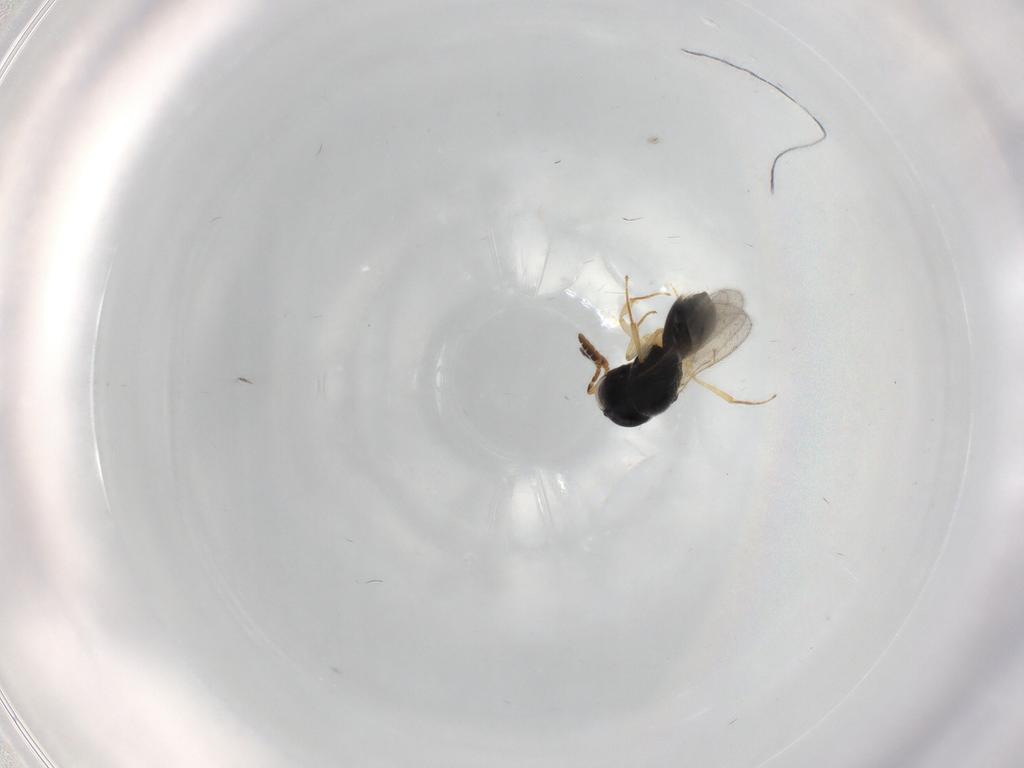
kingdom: Animalia
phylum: Arthropoda
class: Insecta
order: Hymenoptera
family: Scelionidae
